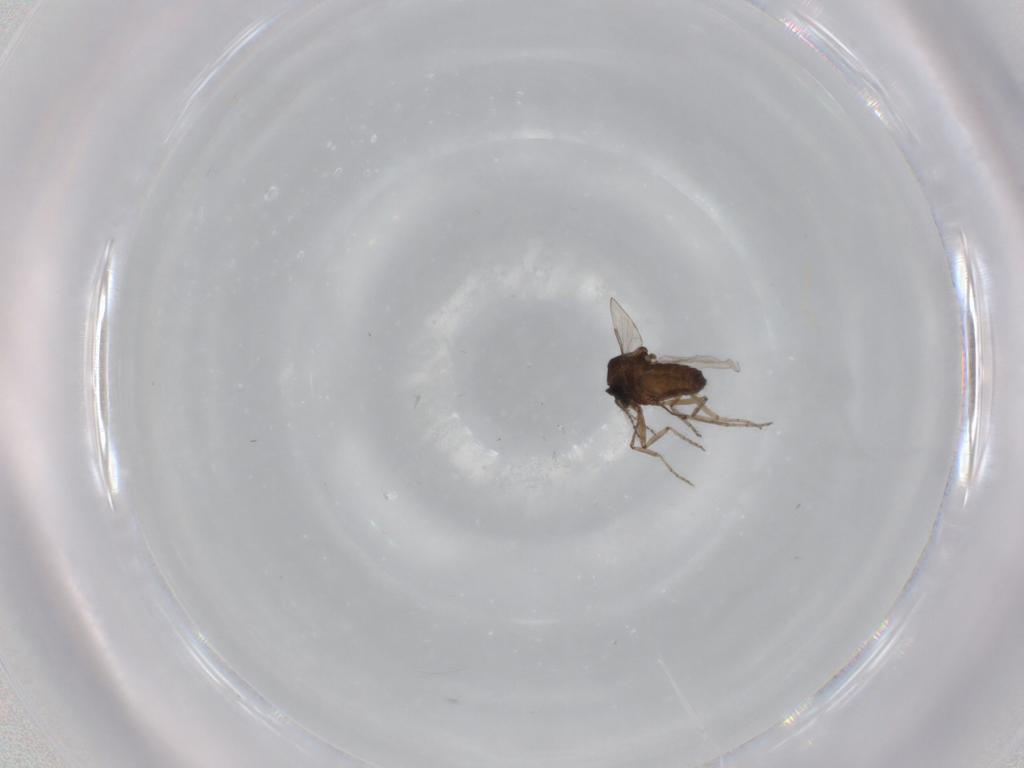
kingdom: Animalia
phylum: Arthropoda
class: Insecta
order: Diptera
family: Ceratopogonidae
